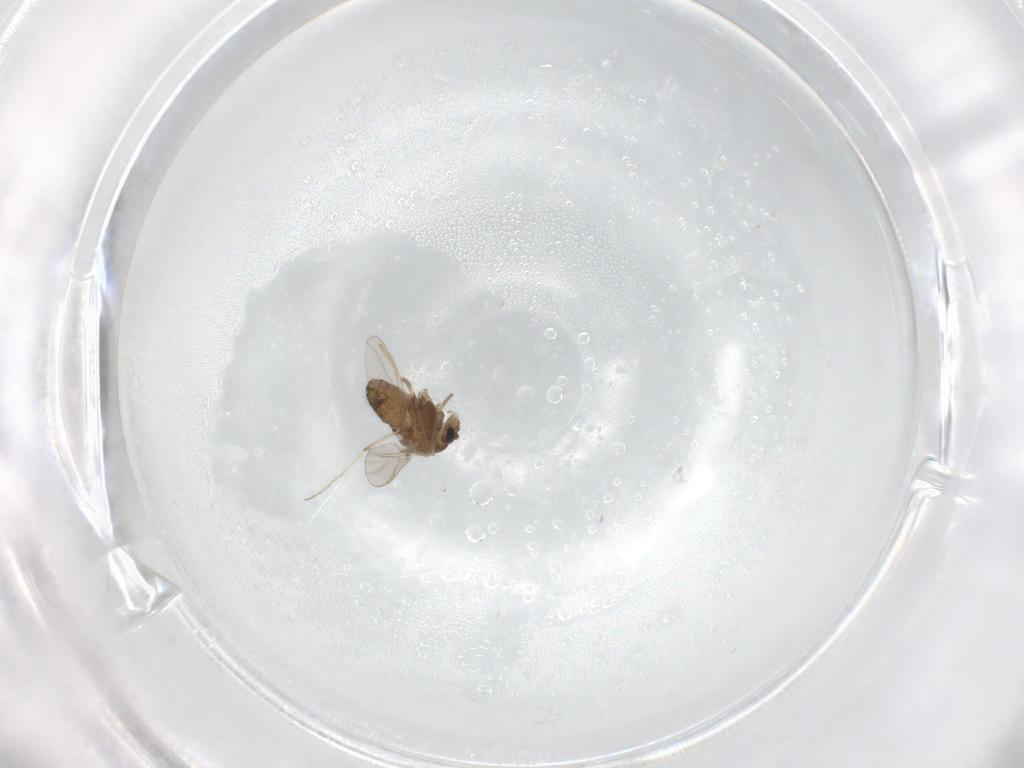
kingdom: Animalia
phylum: Arthropoda
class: Insecta
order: Diptera
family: Chironomidae
